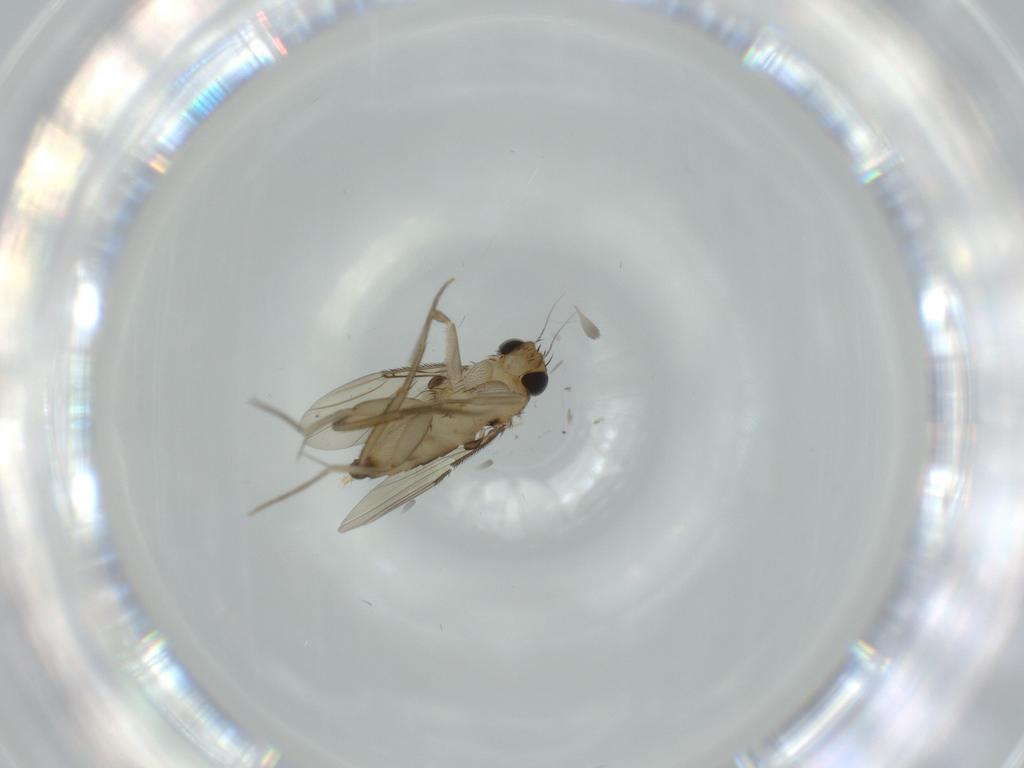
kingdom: Animalia
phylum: Arthropoda
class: Insecta
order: Diptera
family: Phoridae
